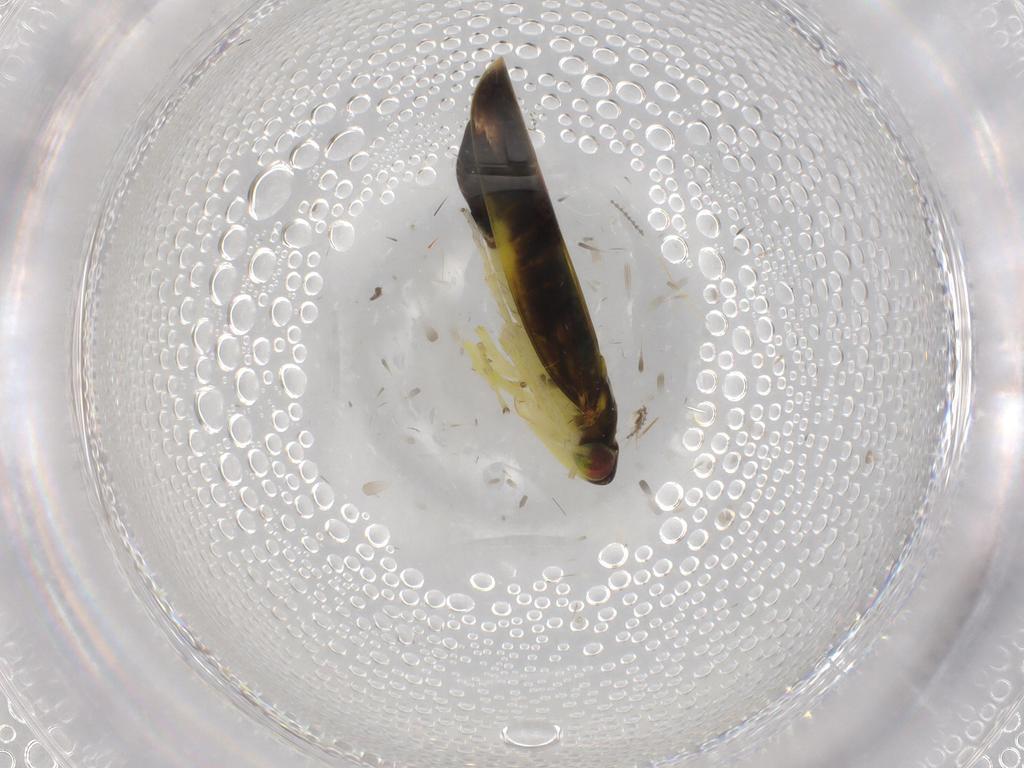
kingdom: Animalia
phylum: Arthropoda
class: Insecta
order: Hemiptera
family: Cicadellidae
